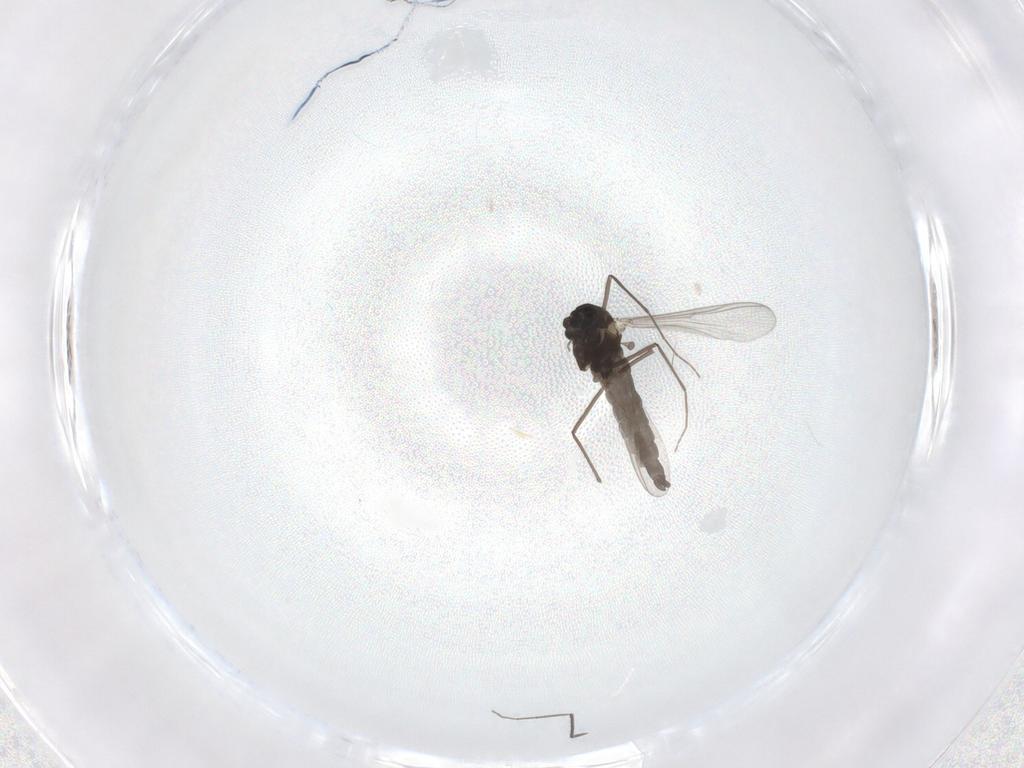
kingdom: Animalia
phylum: Arthropoda
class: Insecta
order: Diptera
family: Chironomidae
